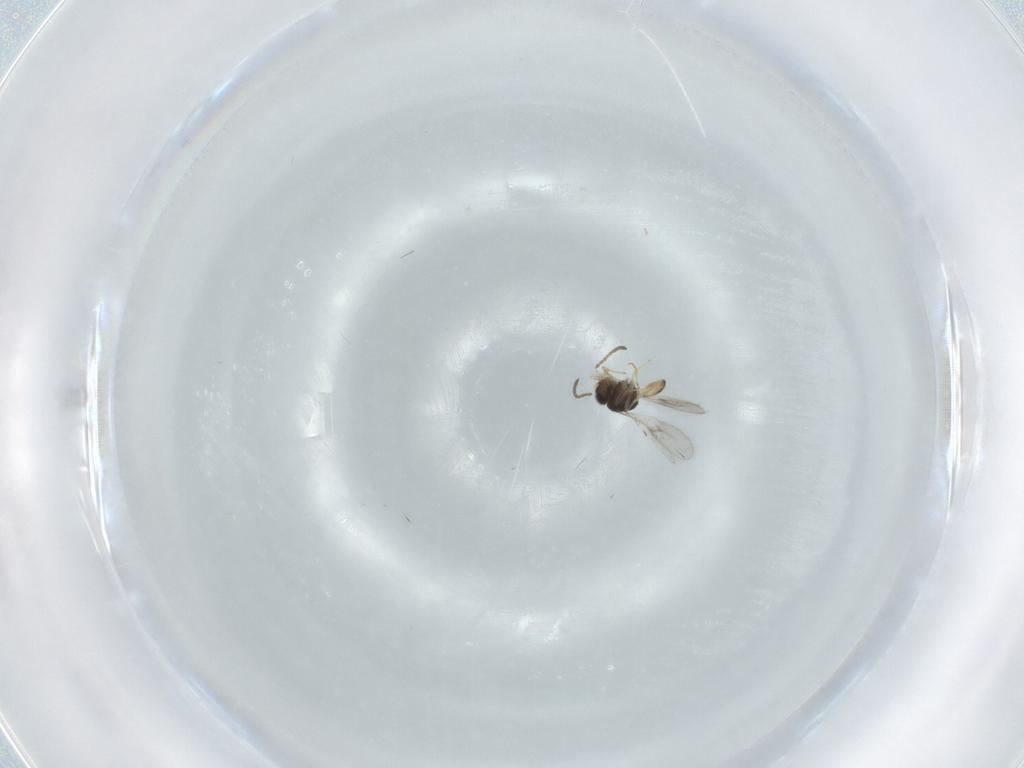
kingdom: Animalia
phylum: Arthropoda
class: Insecta
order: Hymenoptera
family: Scelionidae
